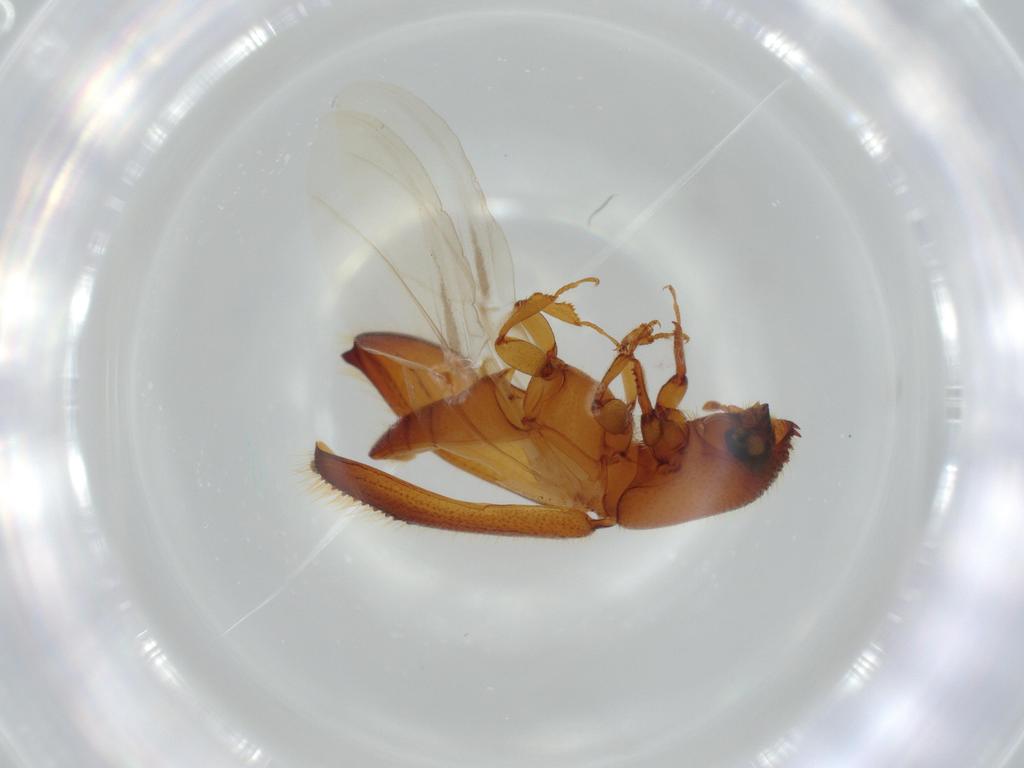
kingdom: Animalia
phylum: Arthropoda
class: Insecta
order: Coleoptera
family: Curculionidae
